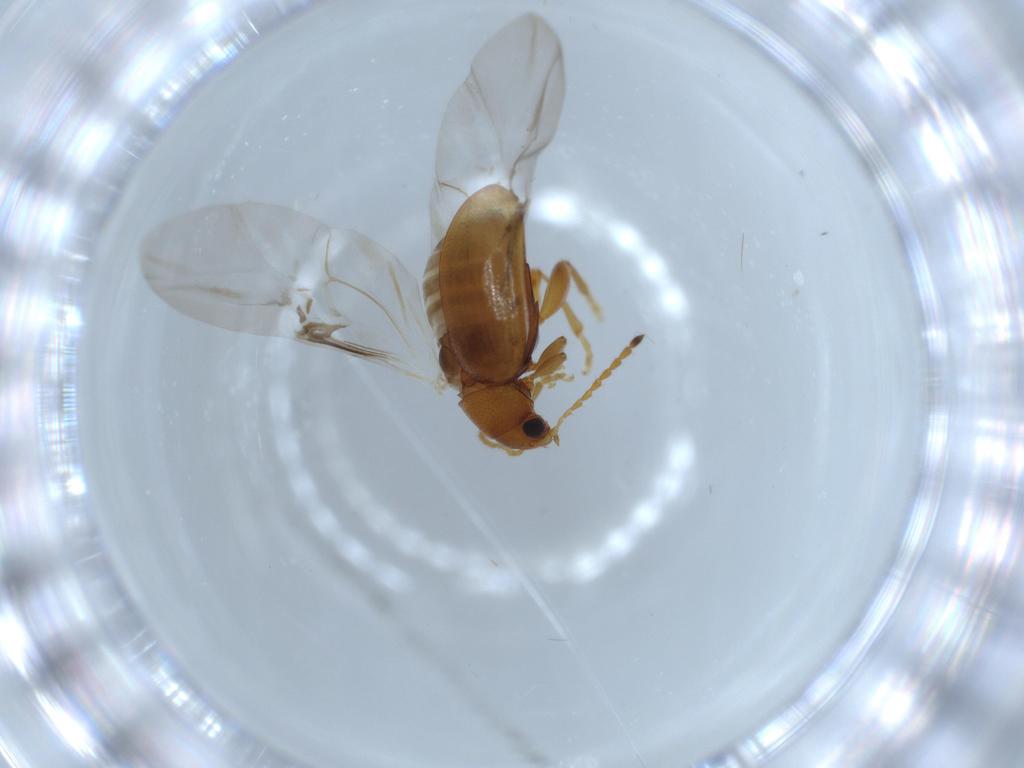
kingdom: Animalia
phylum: Arthropoda
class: Insecta
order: Coleoptera
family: Chrysomelidae
